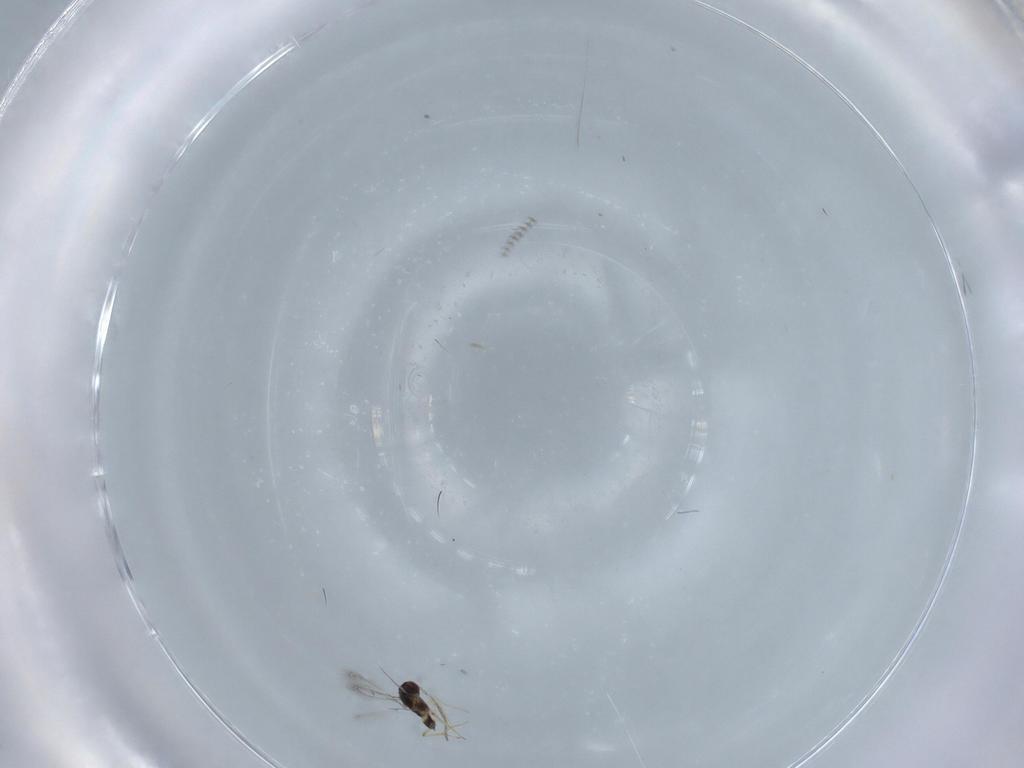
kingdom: Animalia
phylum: Arthropoda
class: Insecta
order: Hymenoptera
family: Mymaridae
